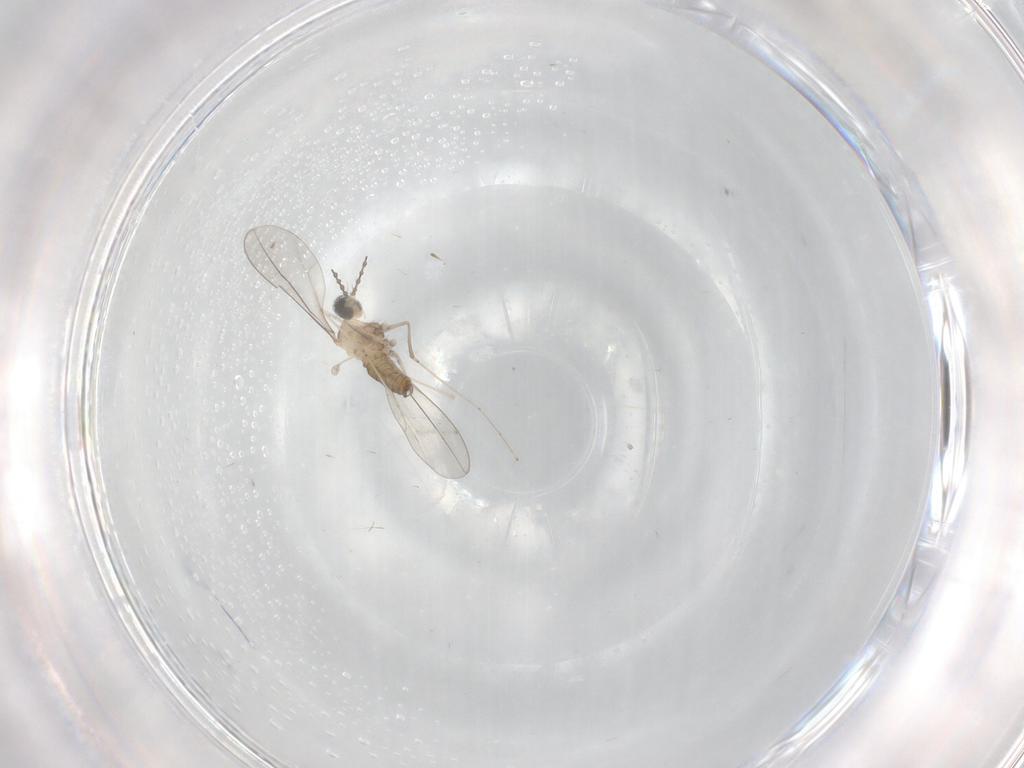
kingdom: Animalia
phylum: Arthropoda
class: Insecta
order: Diptera
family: Cecidomyiidae
